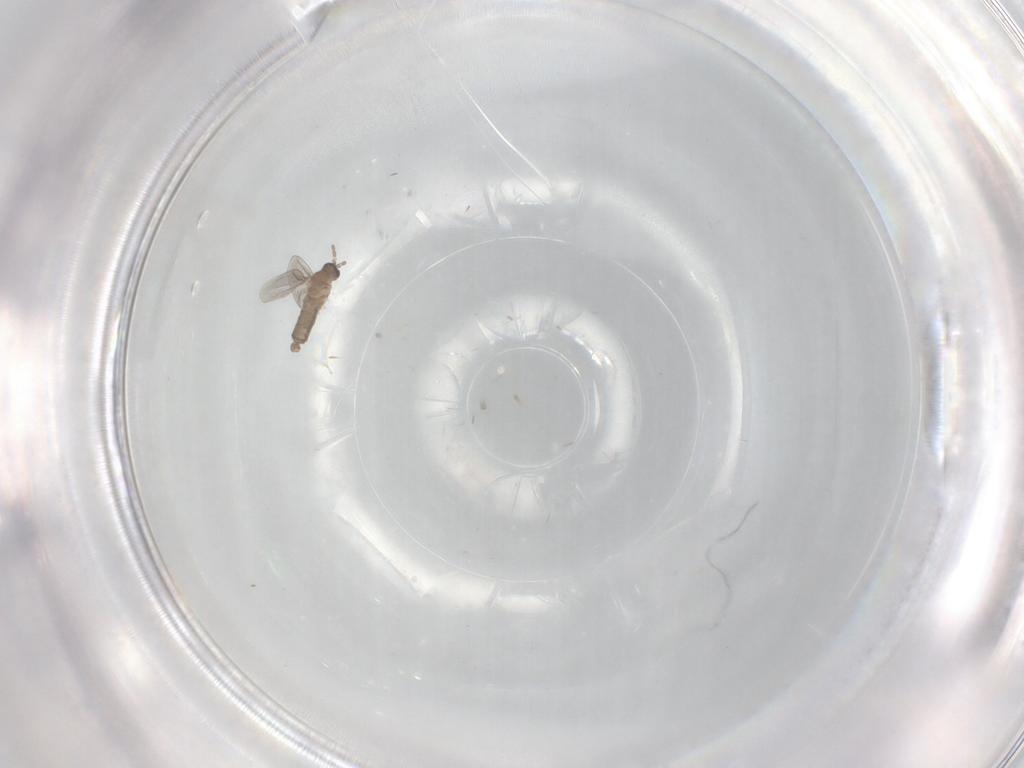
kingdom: Animalia
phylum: Arthropoda
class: Insecta
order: Diptera
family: Cecidomyiidae
